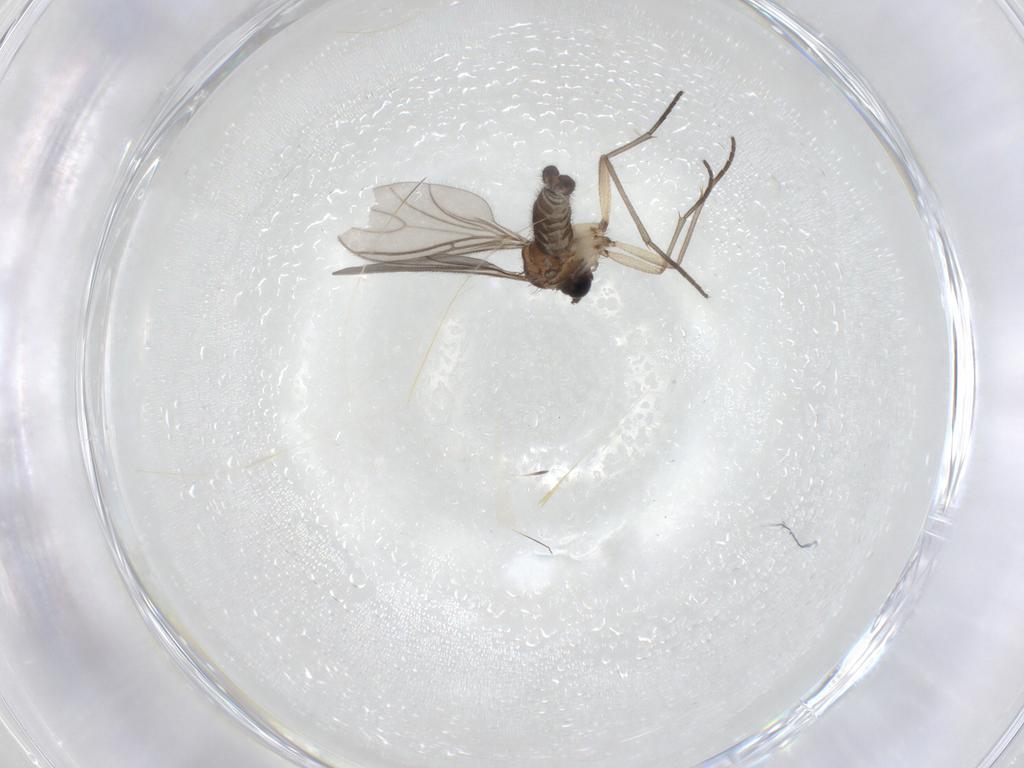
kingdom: Animalia
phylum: Arthropoda
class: Insecta
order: Diptera
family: Sciaridae
